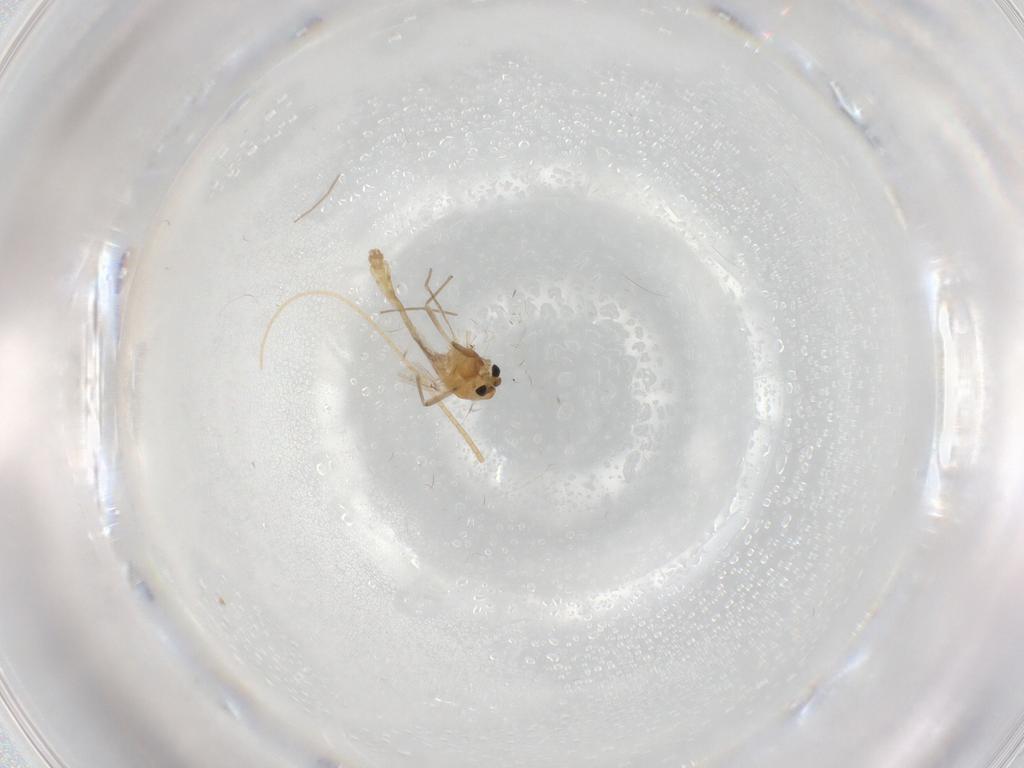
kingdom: Animalia
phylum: Arthropoda
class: Insecta
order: Diptera
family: Chironomidae
